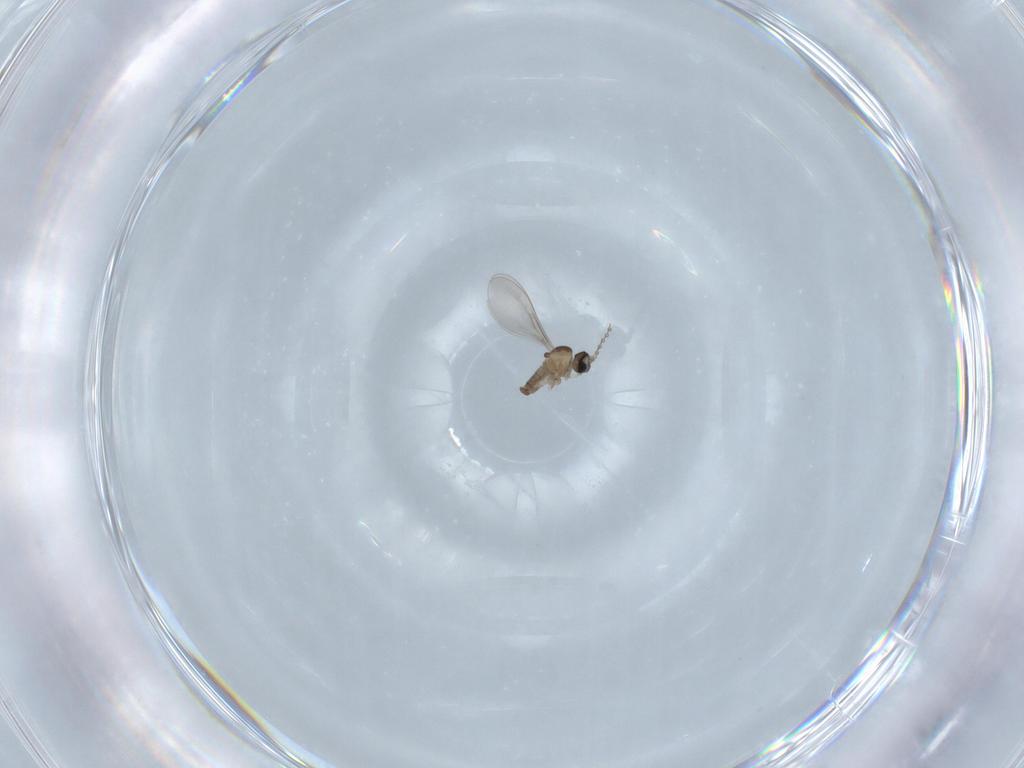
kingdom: Animalia
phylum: Arthropoda
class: Insecta
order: Diptera
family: Cecidomyiidae
